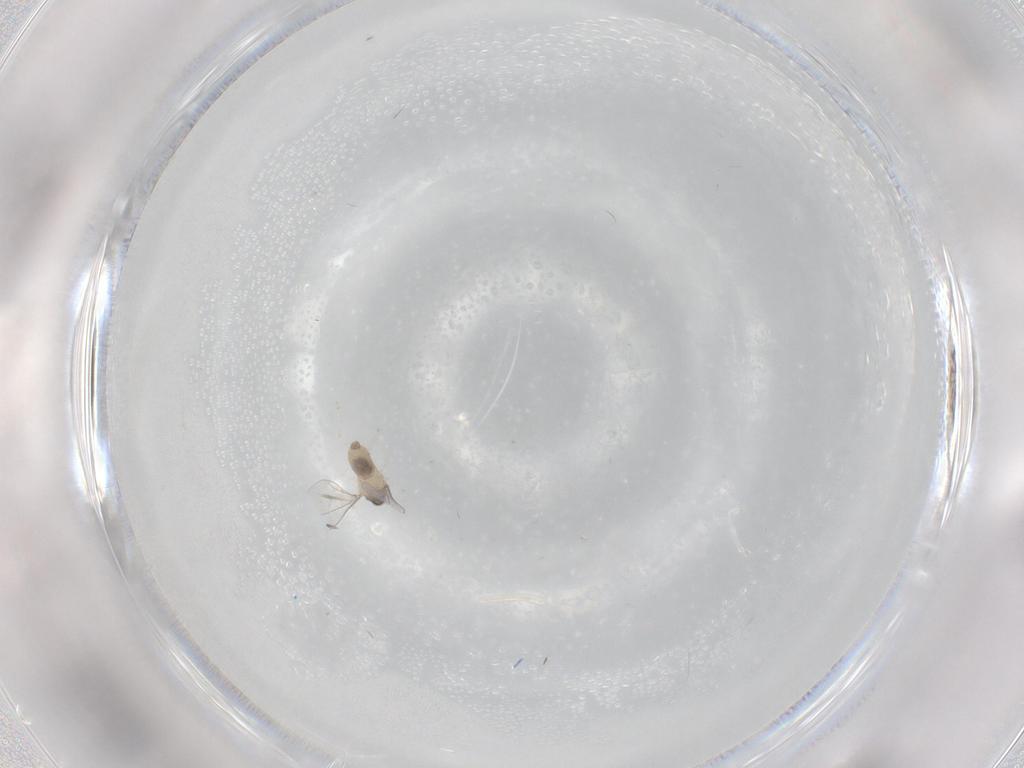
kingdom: Animalia
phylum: Arthropoda
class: Insecta
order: Diptera
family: Cecidomyiidae
